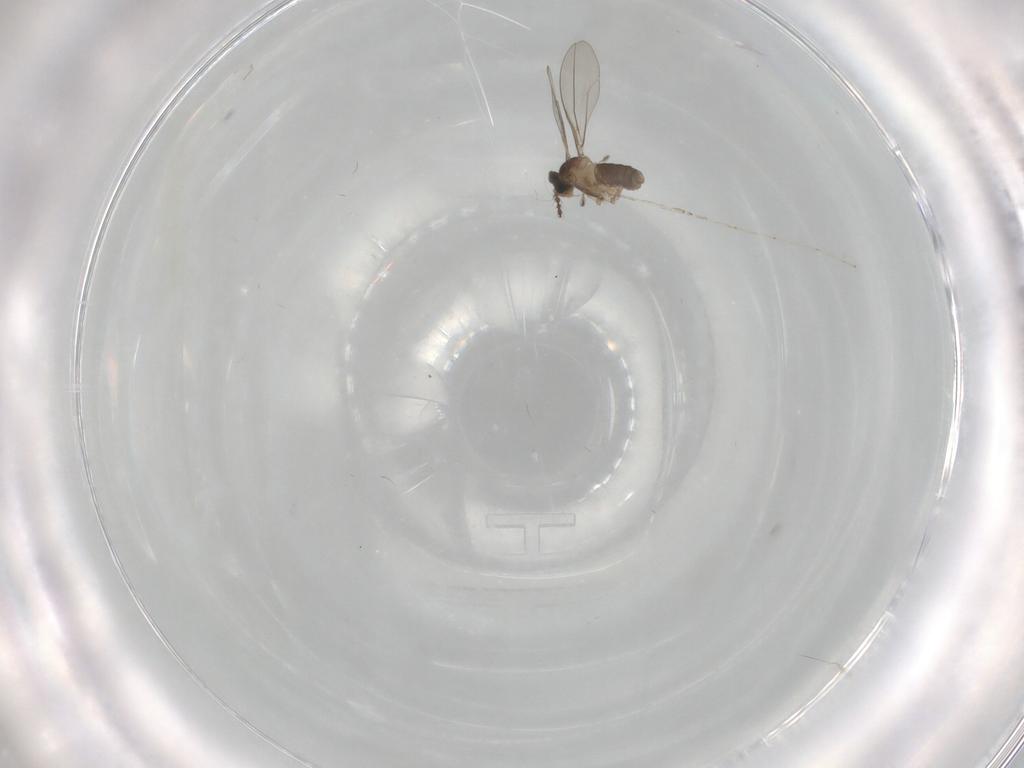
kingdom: Animalia
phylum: Arthropoda
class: Insecta
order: Diptera
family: Cecidomyiidae
